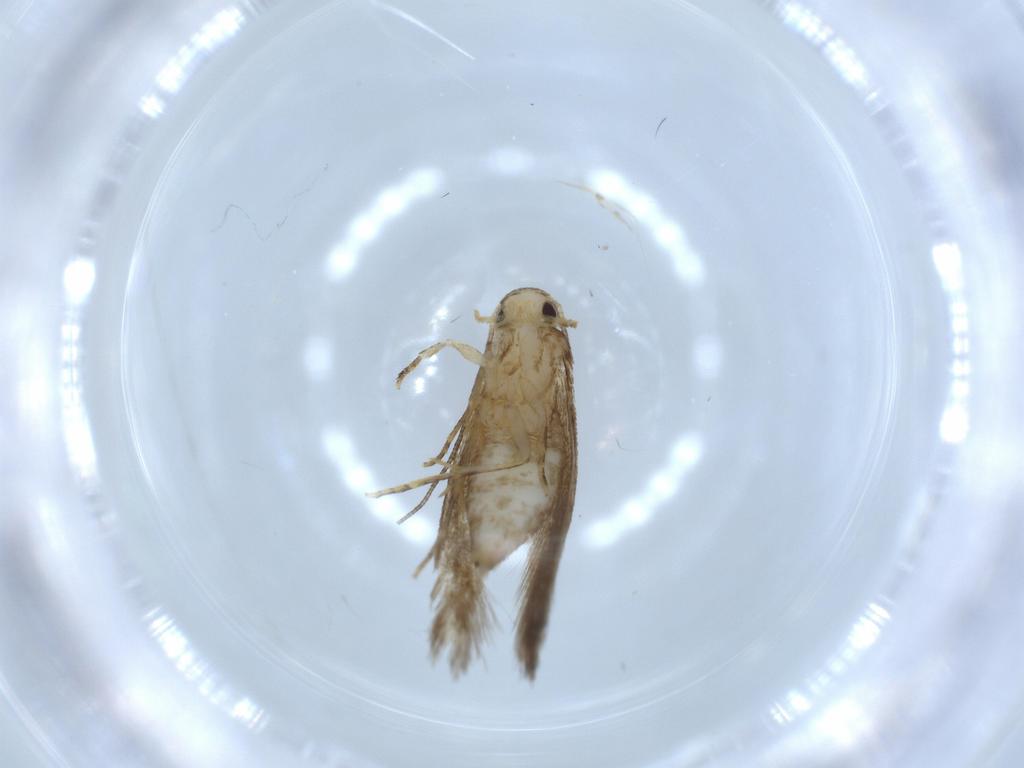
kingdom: Animalia
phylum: Arthropoda
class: Insecta
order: Lepidoptera
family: Tineidae
